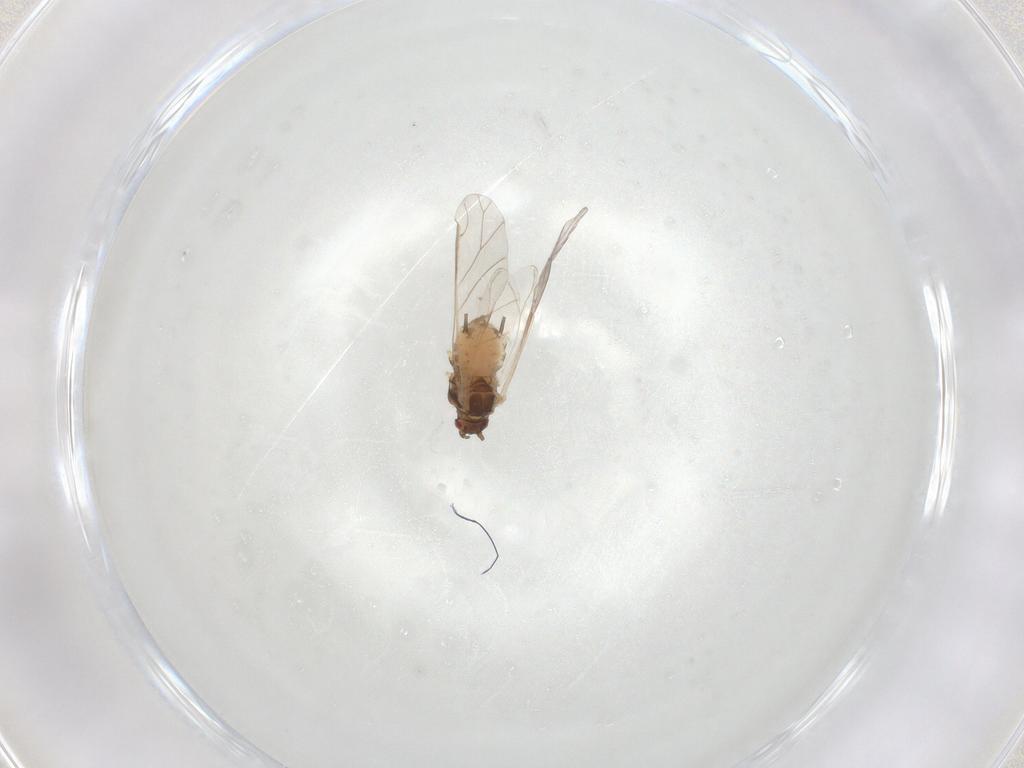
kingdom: Animalia
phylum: Arthropoda
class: Insecta
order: Hemiptera
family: Aphididae
